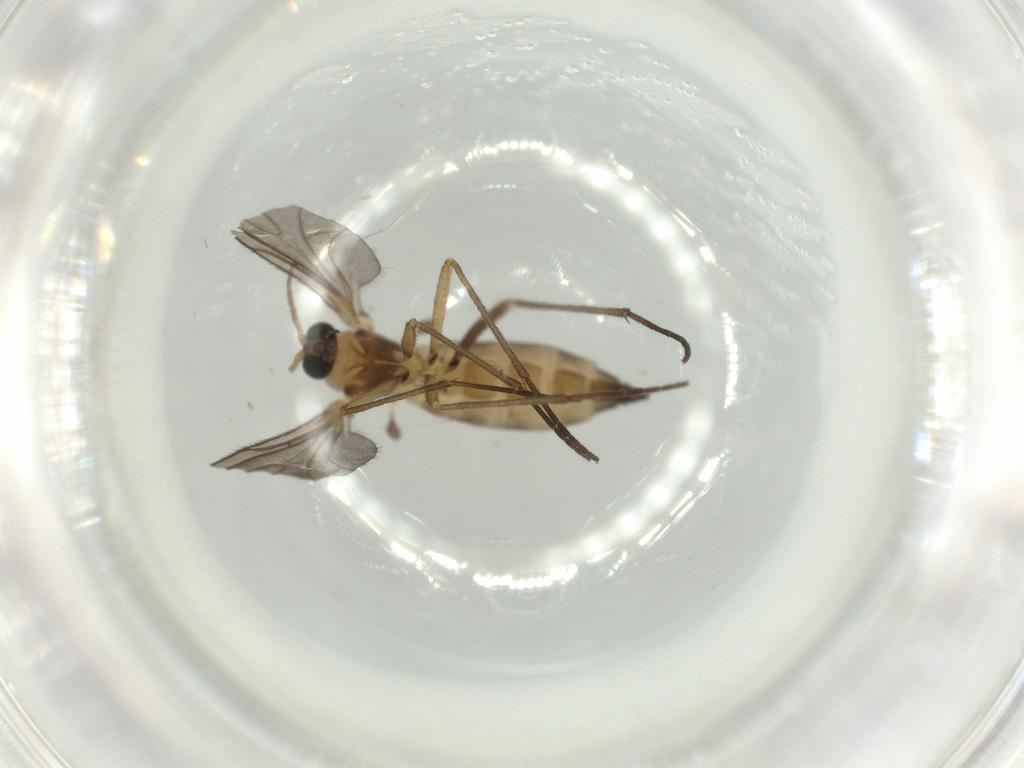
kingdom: Animalia
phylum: Arthropoda
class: Insecta
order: Diptera
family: Sciaridae
